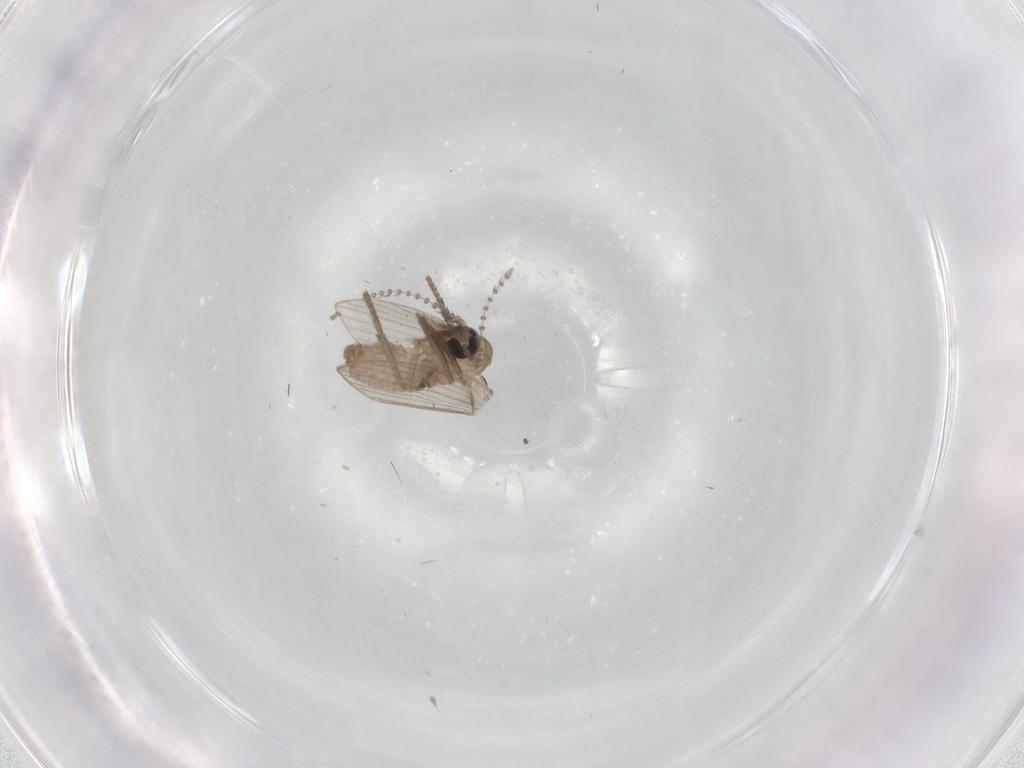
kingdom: Animalia
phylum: Arthropoda
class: Insecta
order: Diptera
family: Psychodidae
